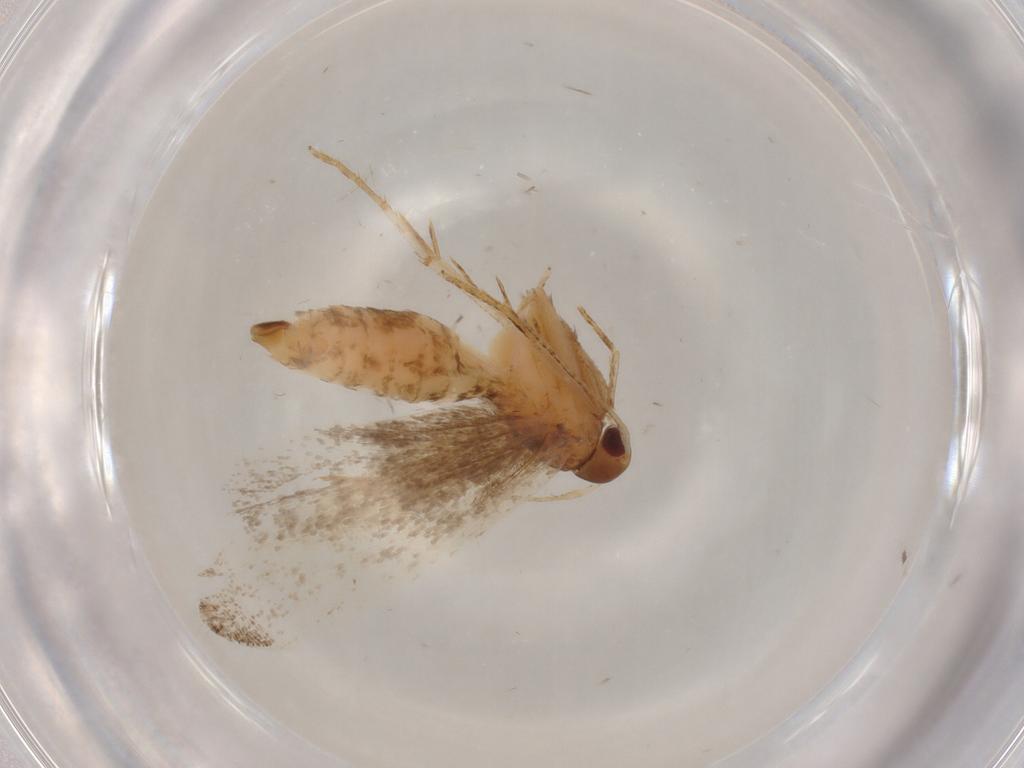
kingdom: Animalia
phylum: Arthropoda
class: Insecta
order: Lepidoptera
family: Gelechiidae
